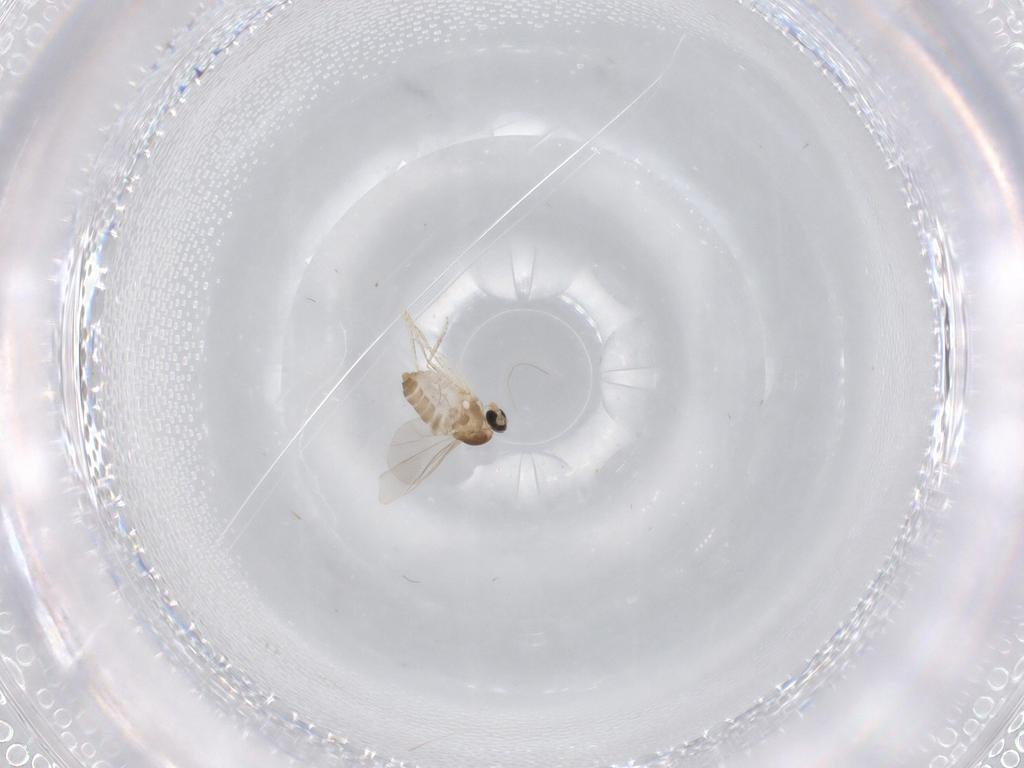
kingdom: Animalia
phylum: Arthropoda
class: Insecta
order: Diptera
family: Cecidomyiidae
